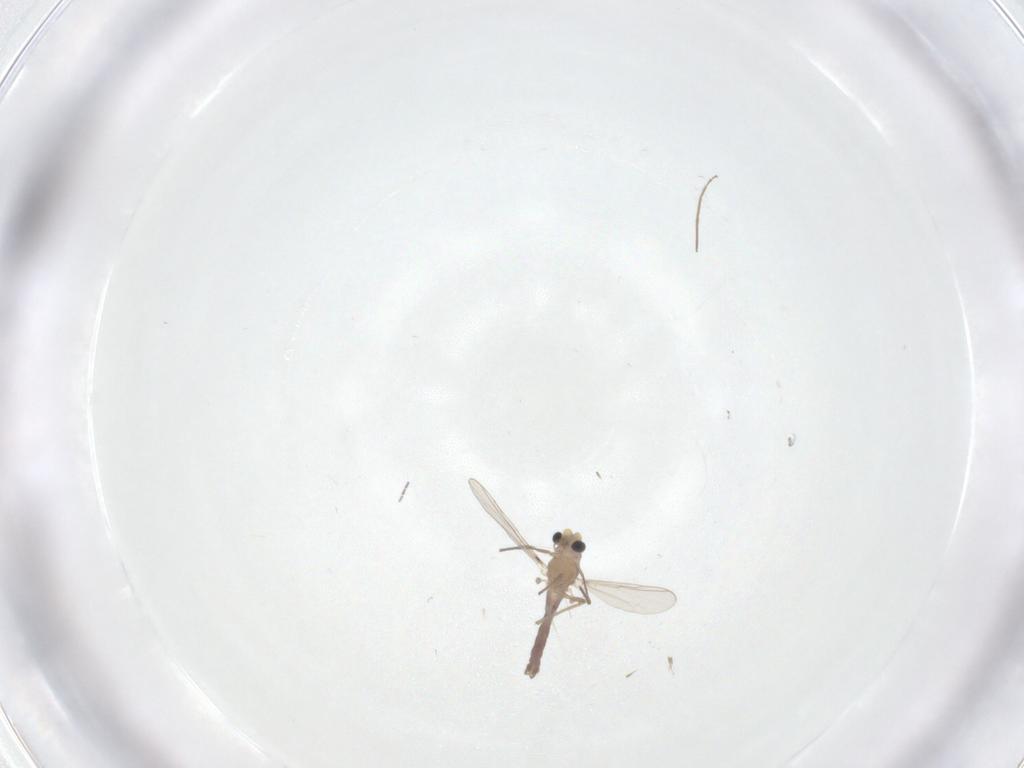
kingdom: Animalia
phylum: Arthropoda
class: Insecta
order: Diptera
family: Chironomidae
